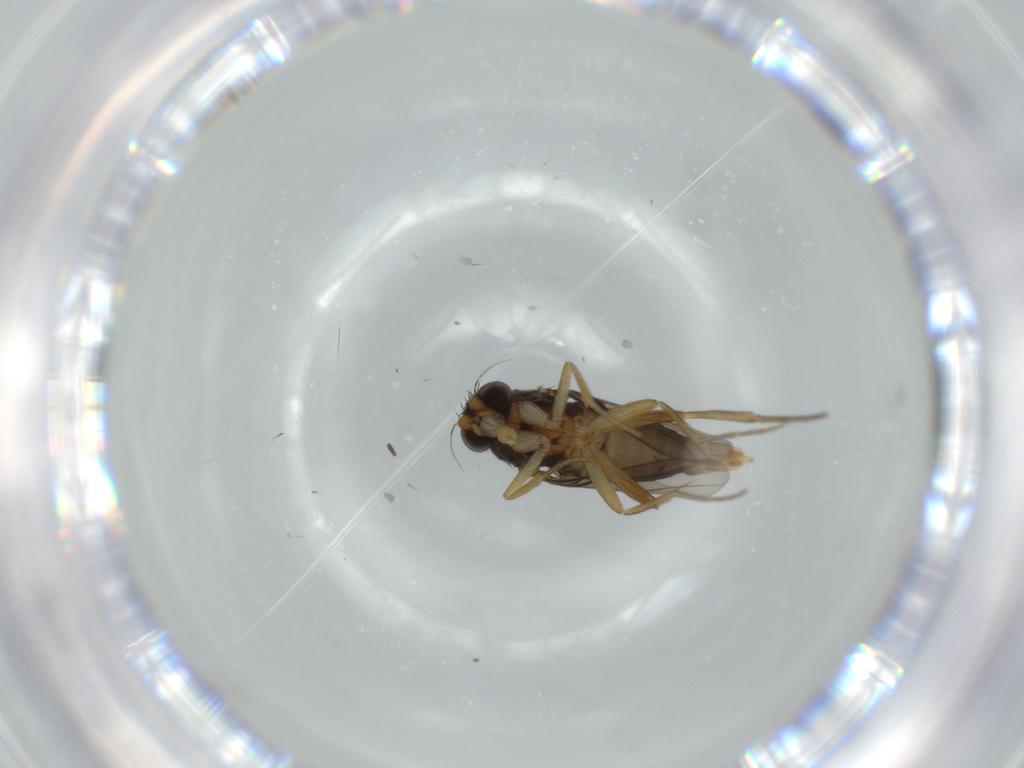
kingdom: Animalia
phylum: Arthropoda
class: Insecta
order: Diptera
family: Phoridae
